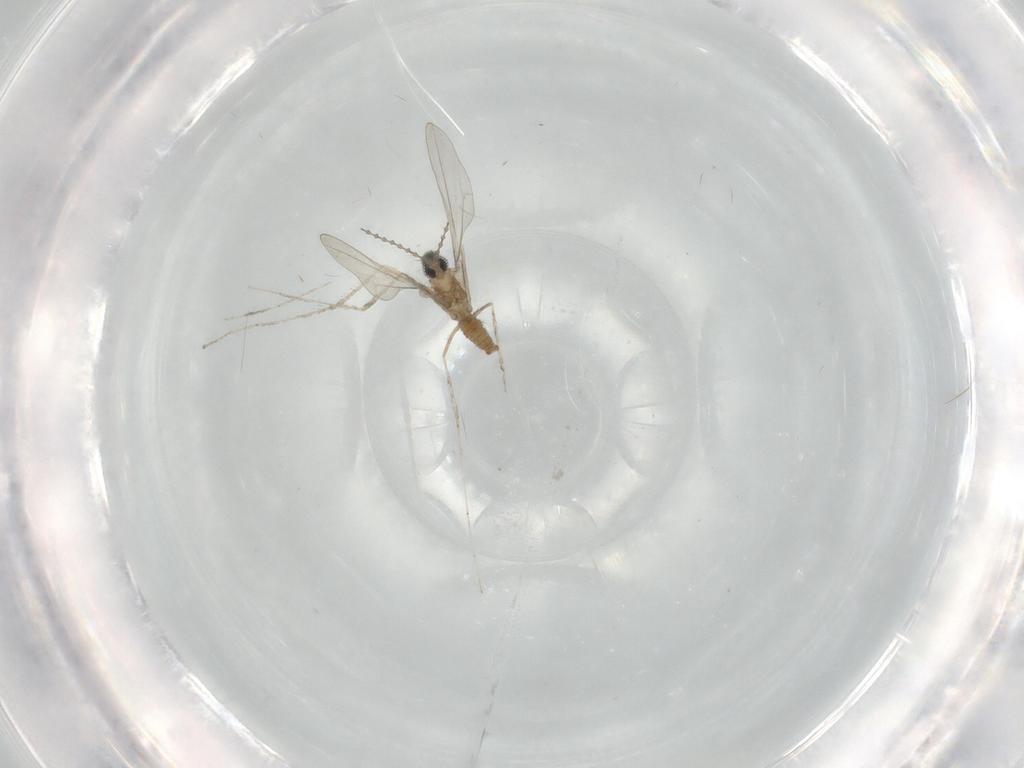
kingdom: Animalia
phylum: Arthropoda
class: Insecta
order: Diptera
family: Cecidomyiidae
